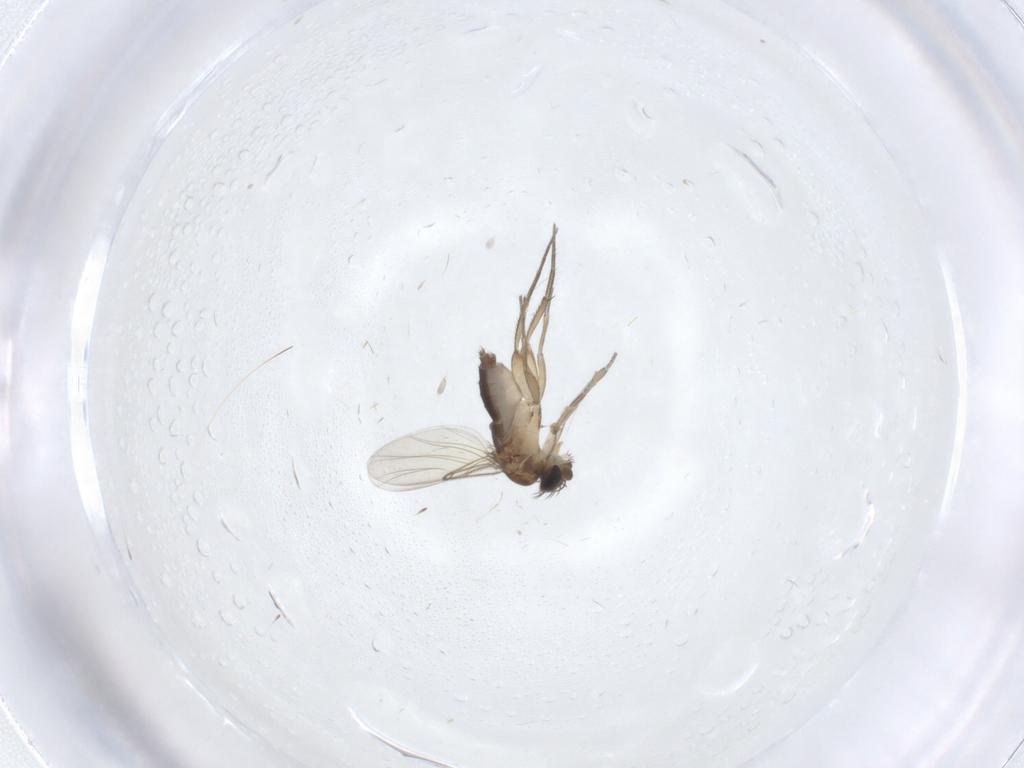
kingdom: Animalia
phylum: Arthropoda
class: Insecta
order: Diptera
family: Phoridae
